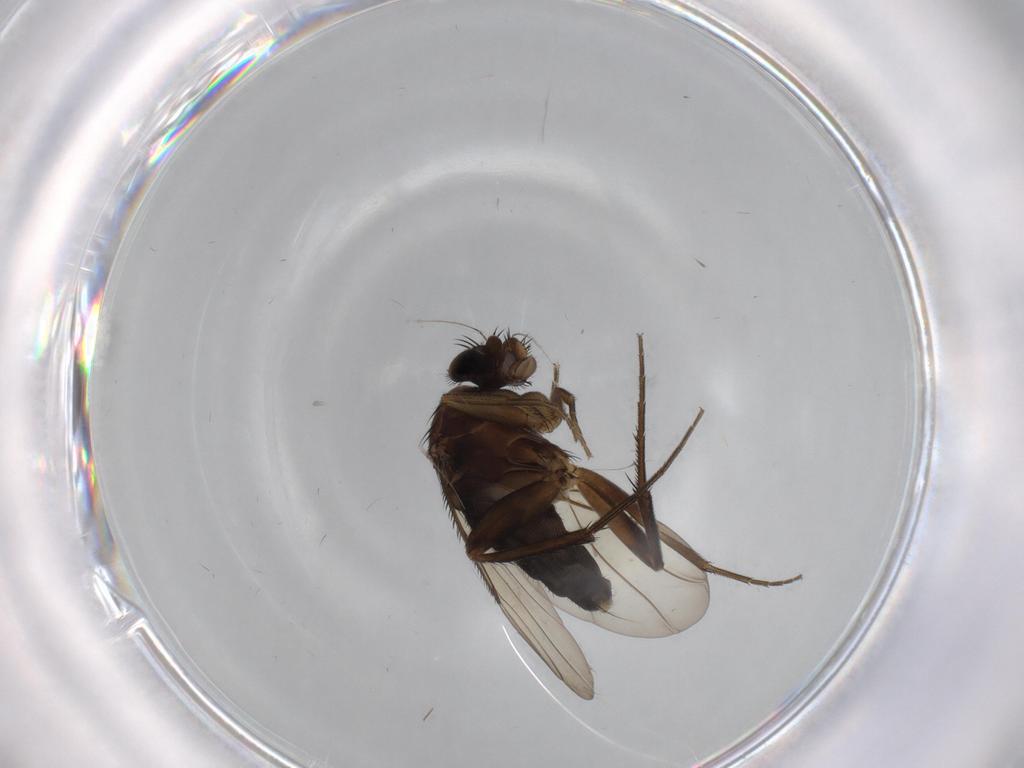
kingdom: Animalia
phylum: Arthropoda
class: Insecta
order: Diptera
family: Phoridae
